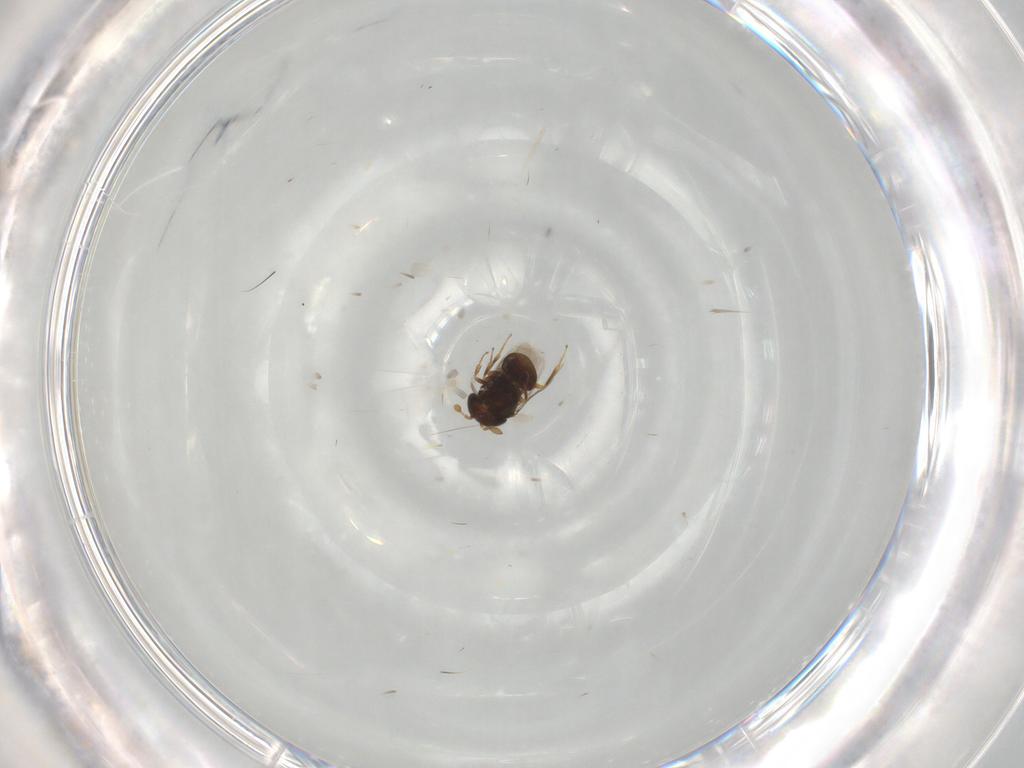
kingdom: Animalia
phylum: Arthropoda
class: Insecta
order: Hymenoptera
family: Scelionidae
